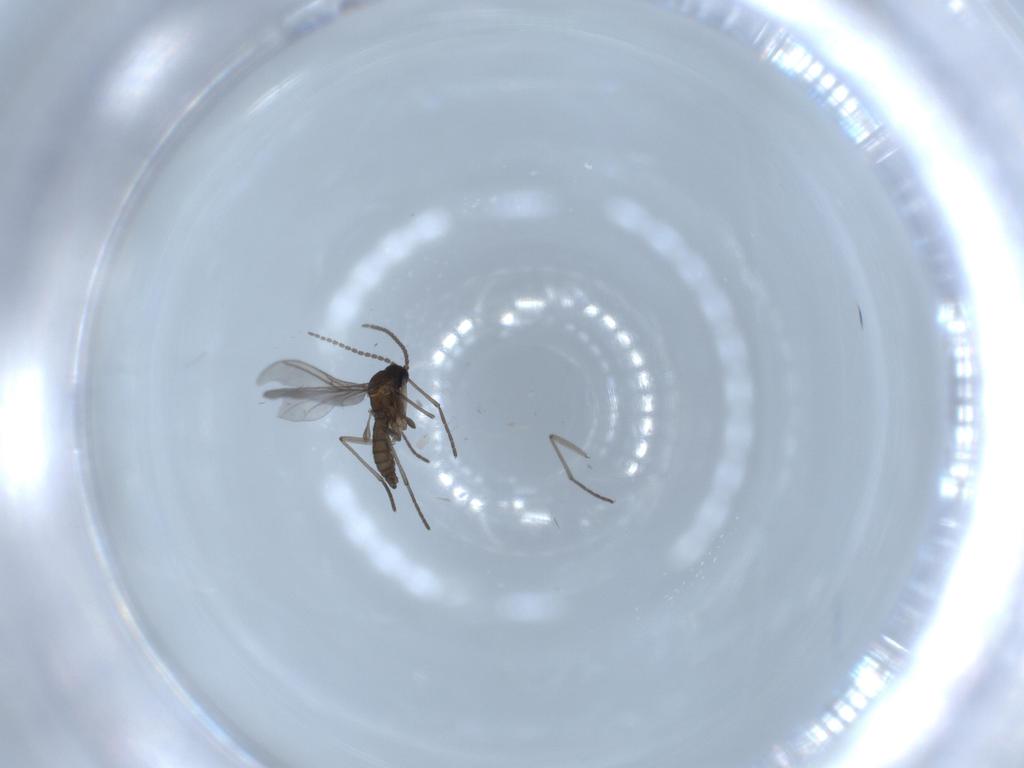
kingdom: Animalia
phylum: Arthropoda
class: Insecta
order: Diptera
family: Sciaridae
